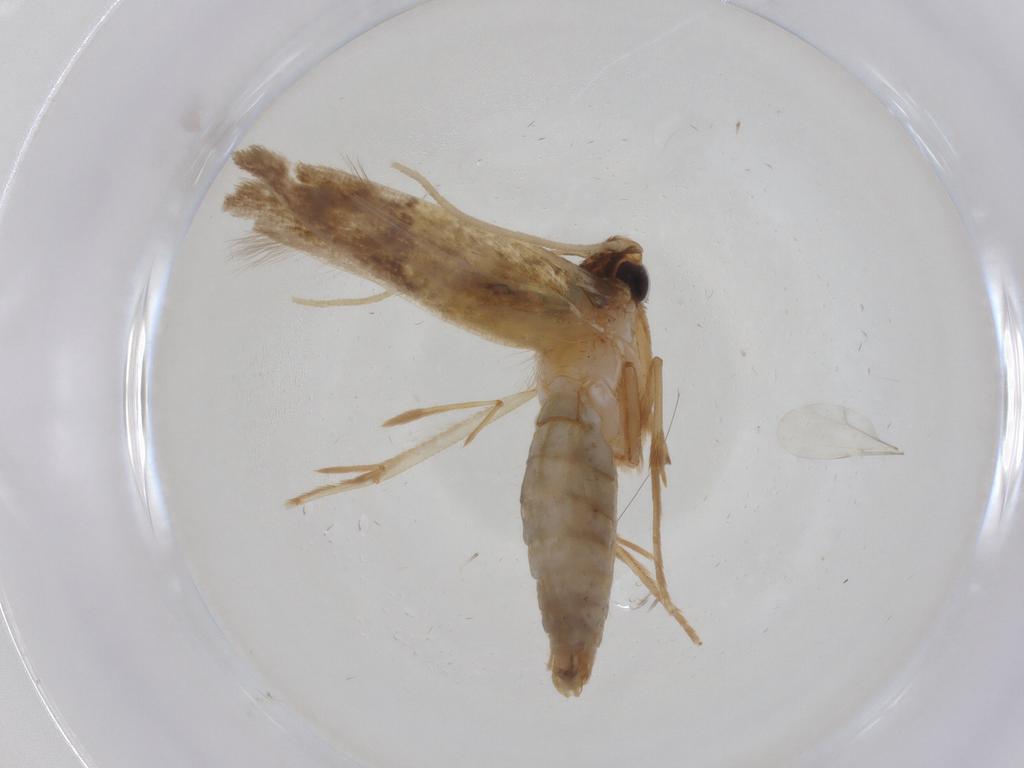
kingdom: Animalia
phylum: Arthropoda
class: Insecta
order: Lepidoptera
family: Tineidae
